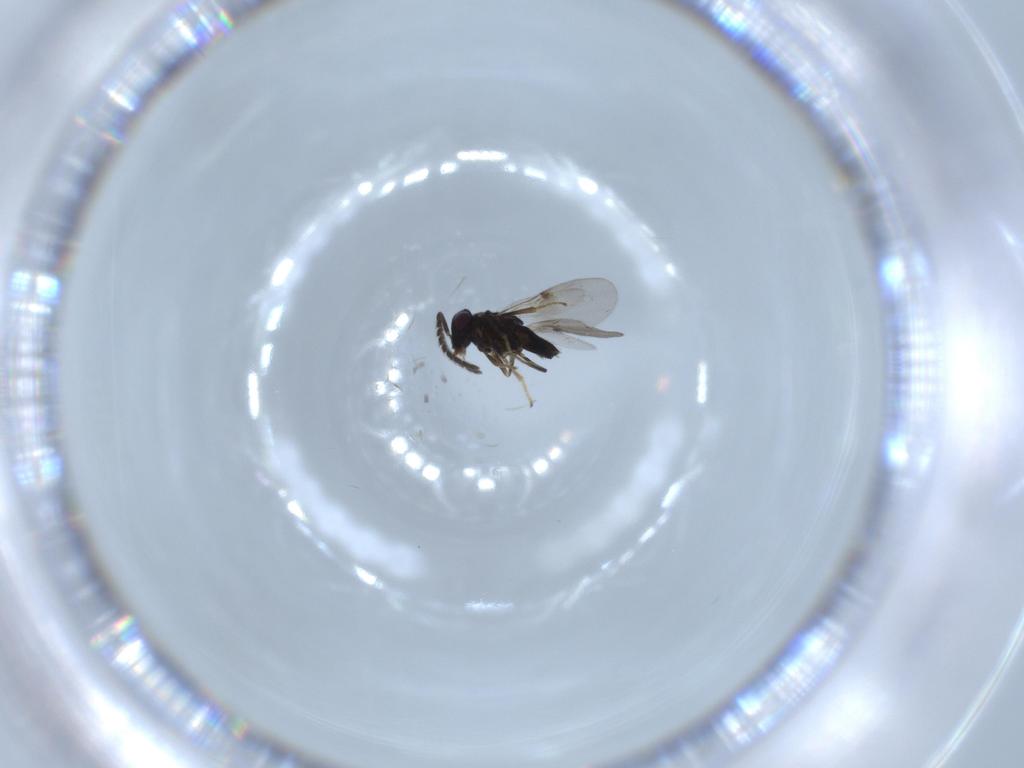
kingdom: Animalia
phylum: Arthropoda
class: Insecta
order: Hymenoptera
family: Encyrtidae
